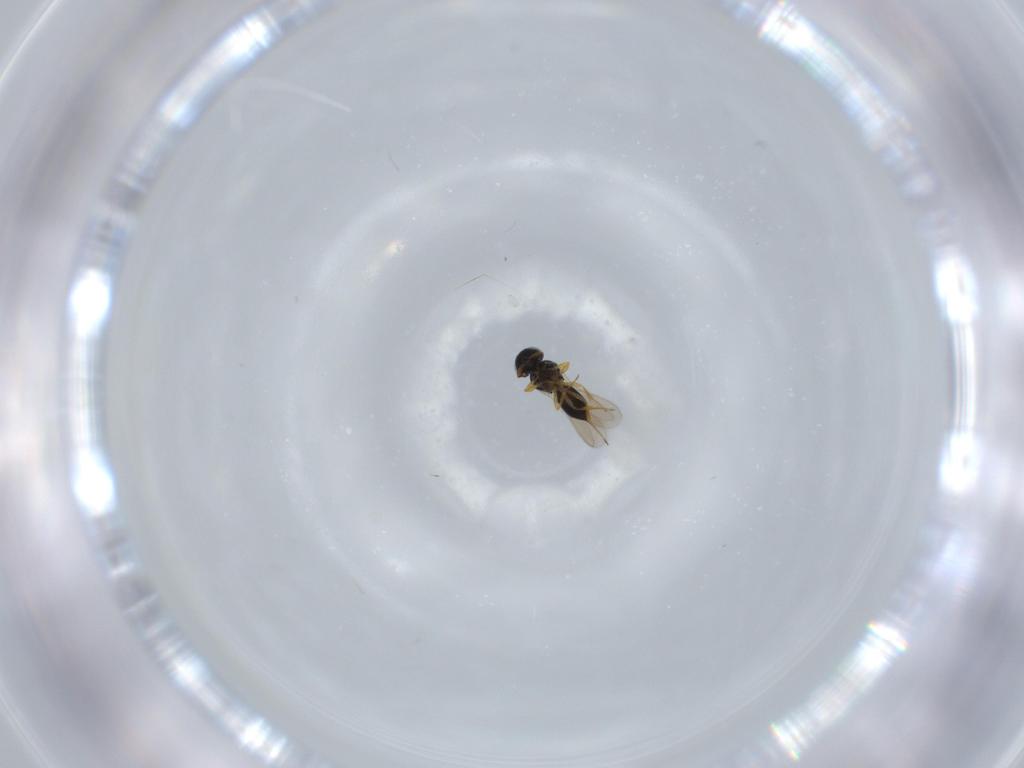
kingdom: Animalia
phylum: Arthropoda
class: Insecta
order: Hymenoptera
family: Scelionidae
